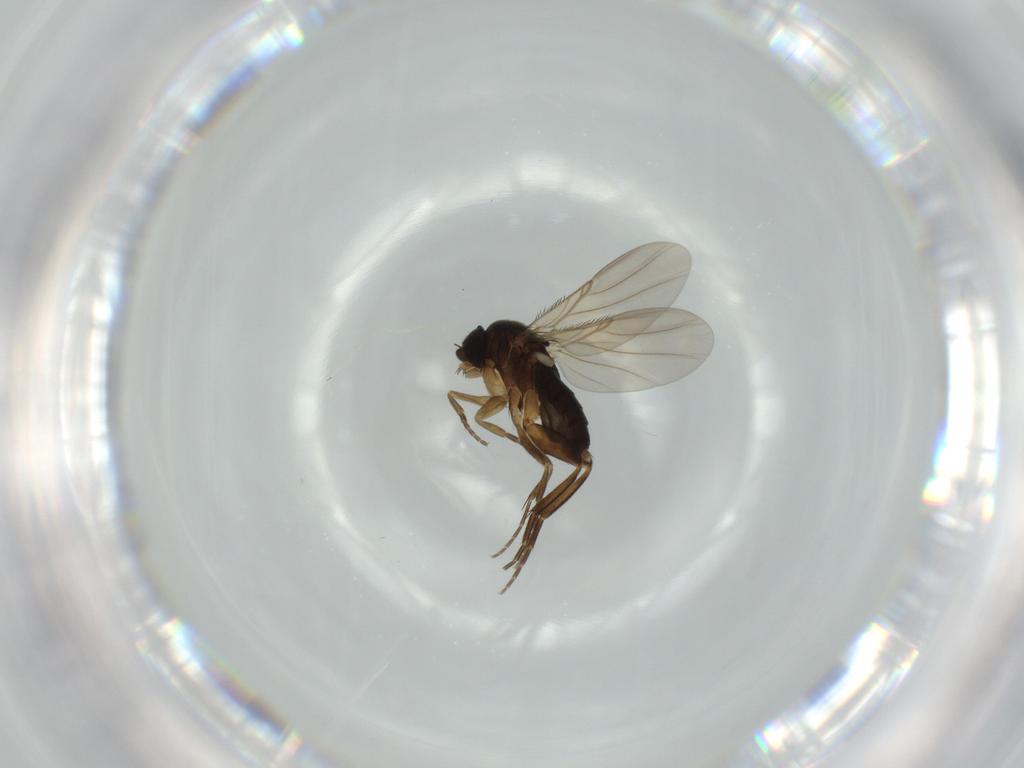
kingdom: Animalia
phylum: Arthropoda
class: Insecta
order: Diptera
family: Phoridae
